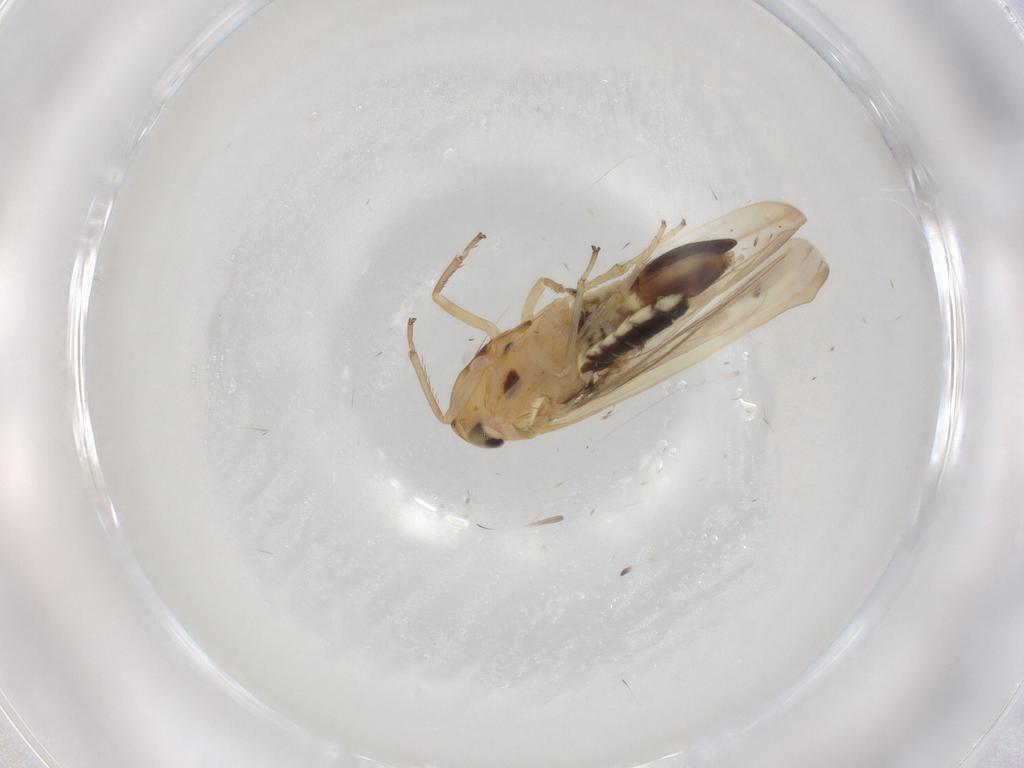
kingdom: Animalia
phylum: Arthropoda
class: Insecta
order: Hemiptera
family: Cicadellidae
